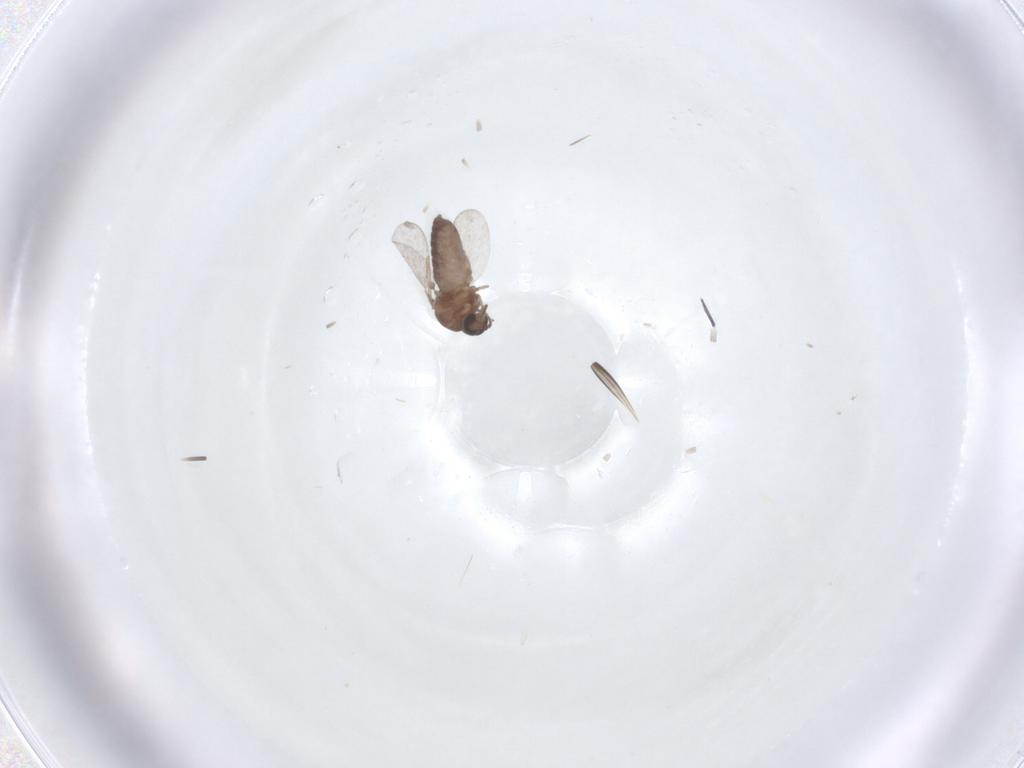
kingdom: Animalia
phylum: Arthropoda
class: Insecta
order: Diptera
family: Ceratopogonidae
